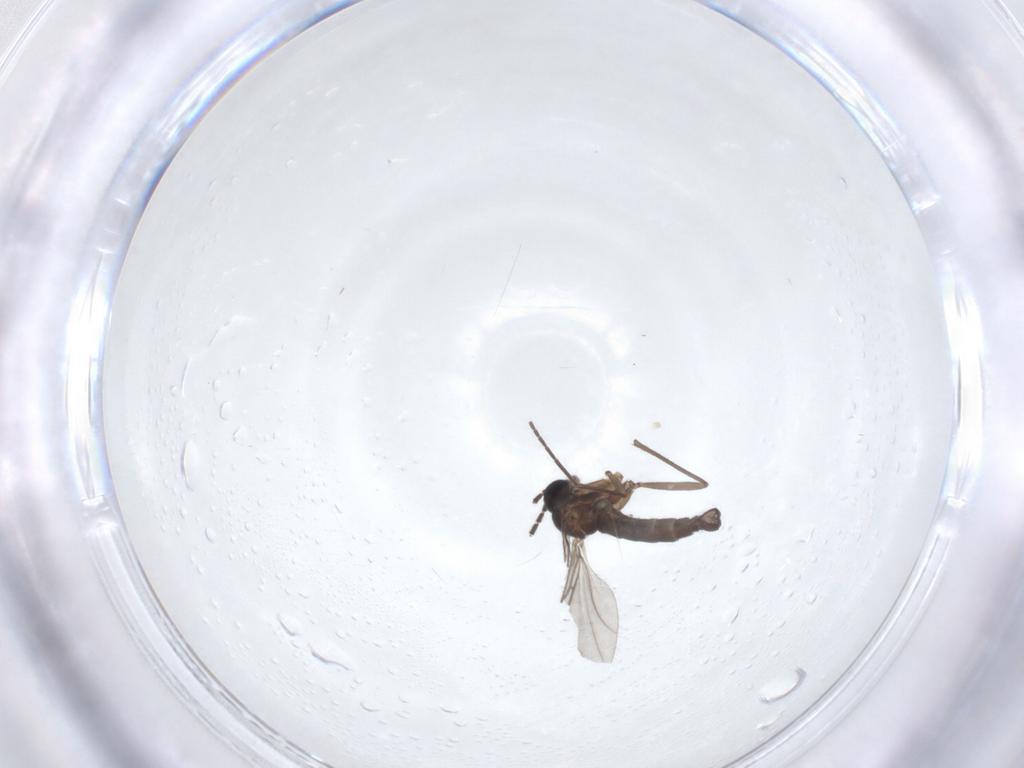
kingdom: Animalia
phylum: Arthropoda
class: Insecta
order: Diptera
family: Sciaridae
